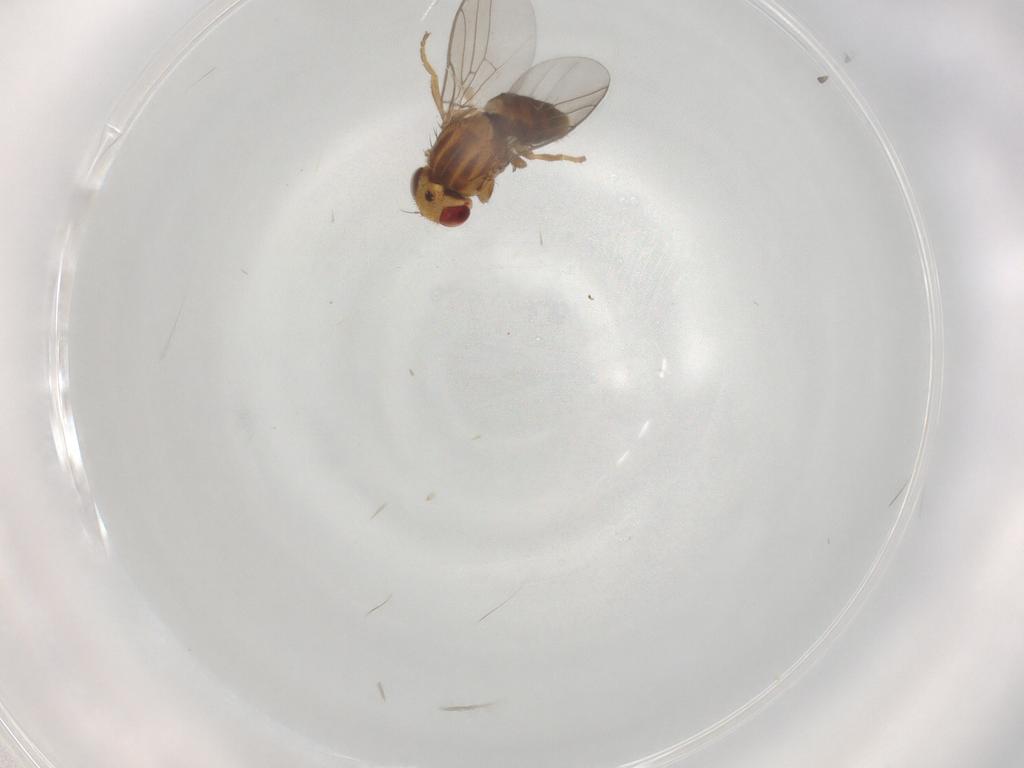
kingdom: Animalia
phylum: Arthropoda
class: Insecta
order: Diptera
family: Chloropidae
